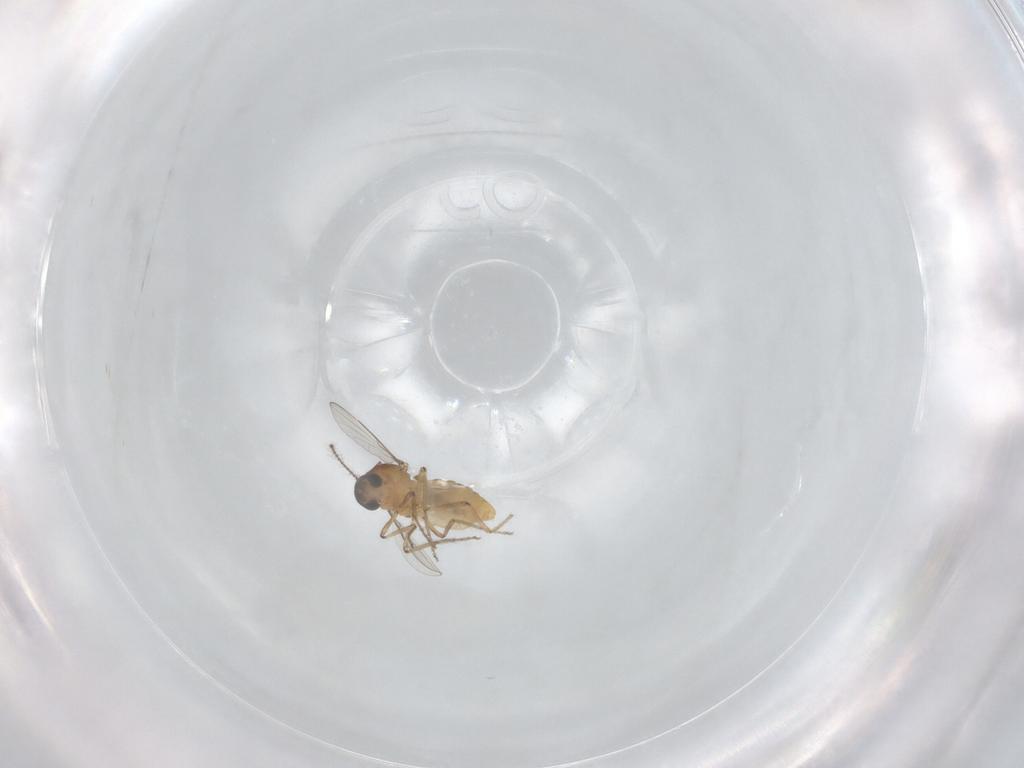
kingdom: Animalia
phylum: Arthropoda
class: Insecta
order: Diptera
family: Ceratopogonidae
